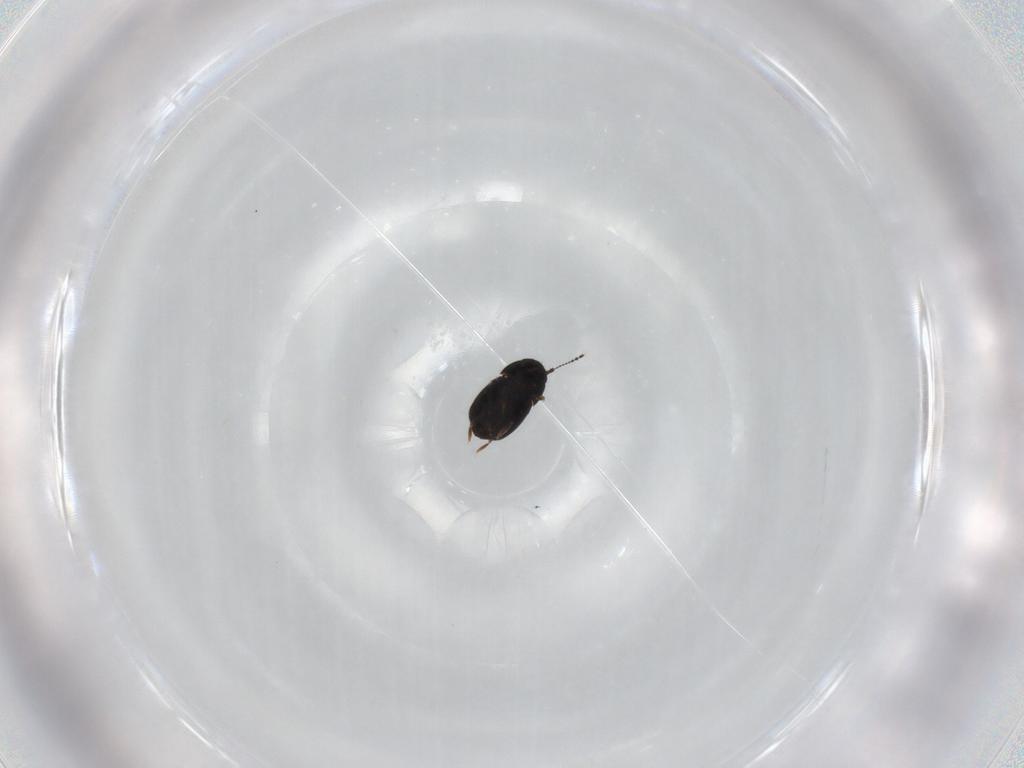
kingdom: Animalia
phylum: Arthropoda
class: Insecta
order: Coleoptera
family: Ptiliidae
